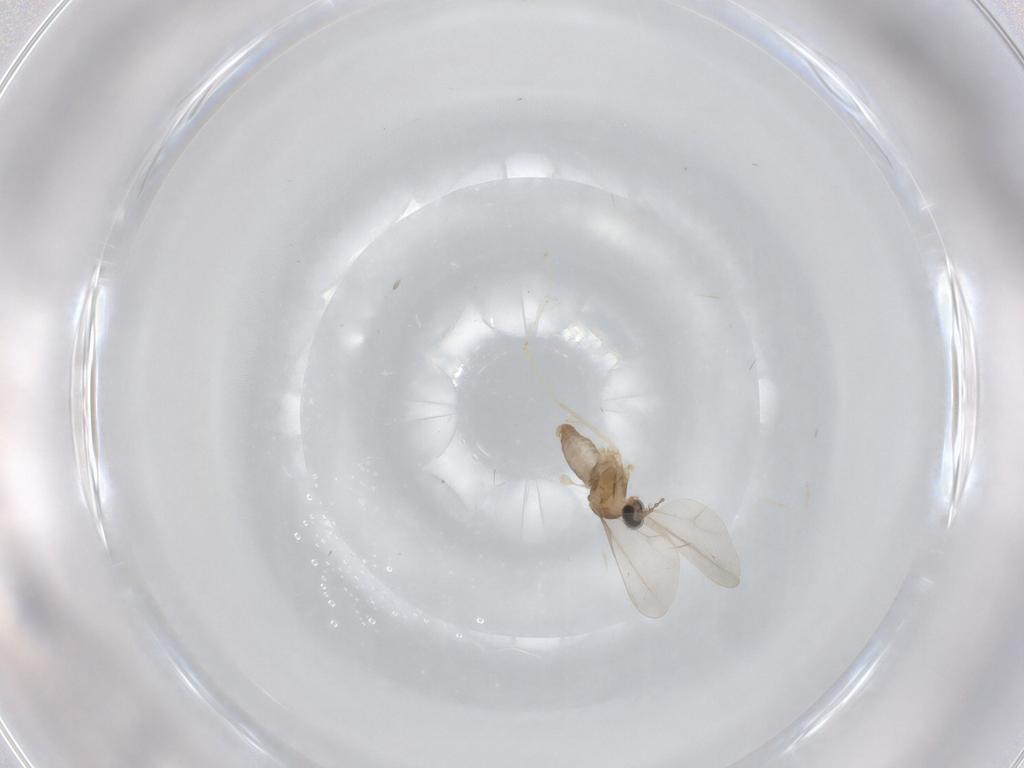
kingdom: Animalia
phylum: Arthropoda
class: Insecta
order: Diptera
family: Cecidomyiidae
